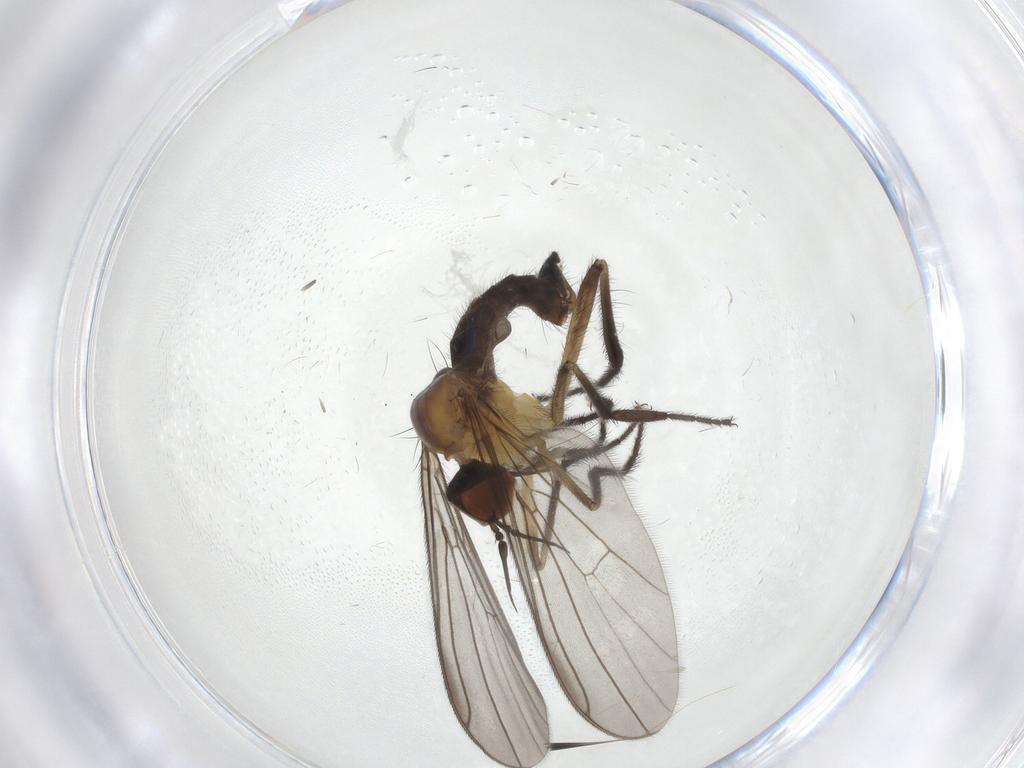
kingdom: Animalia
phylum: Arthropoda
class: Insecta
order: Diptera
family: Empididae
